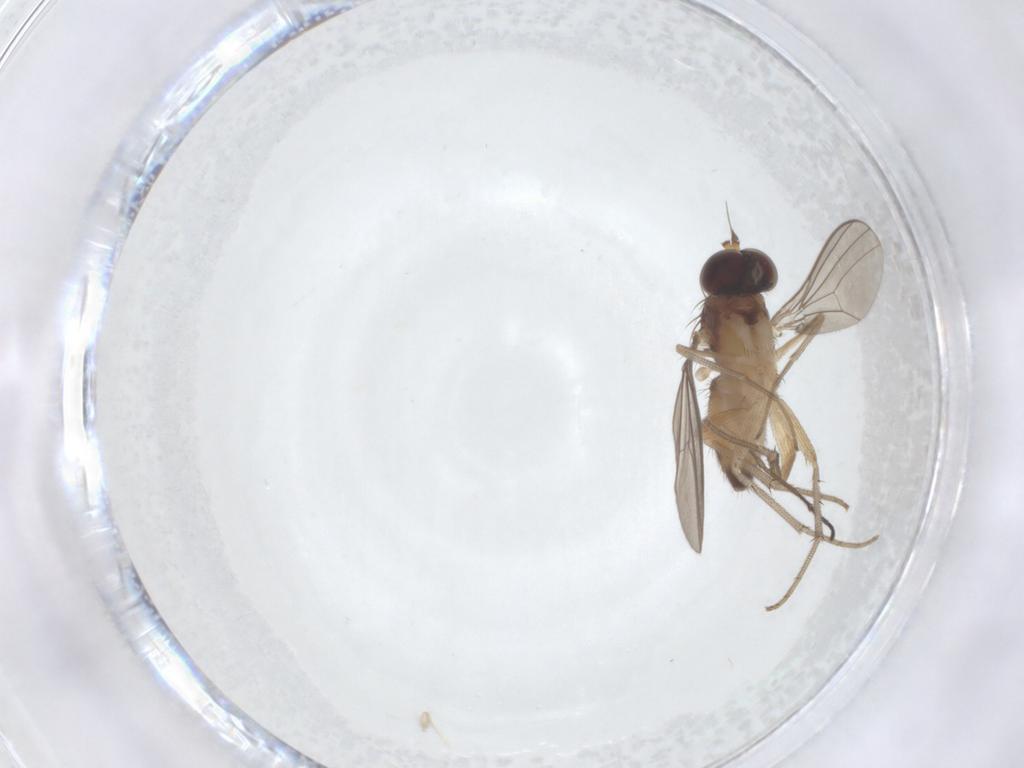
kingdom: Animalia
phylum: Arthropoda
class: Insecta
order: Diptera
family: Dolichopodidae
